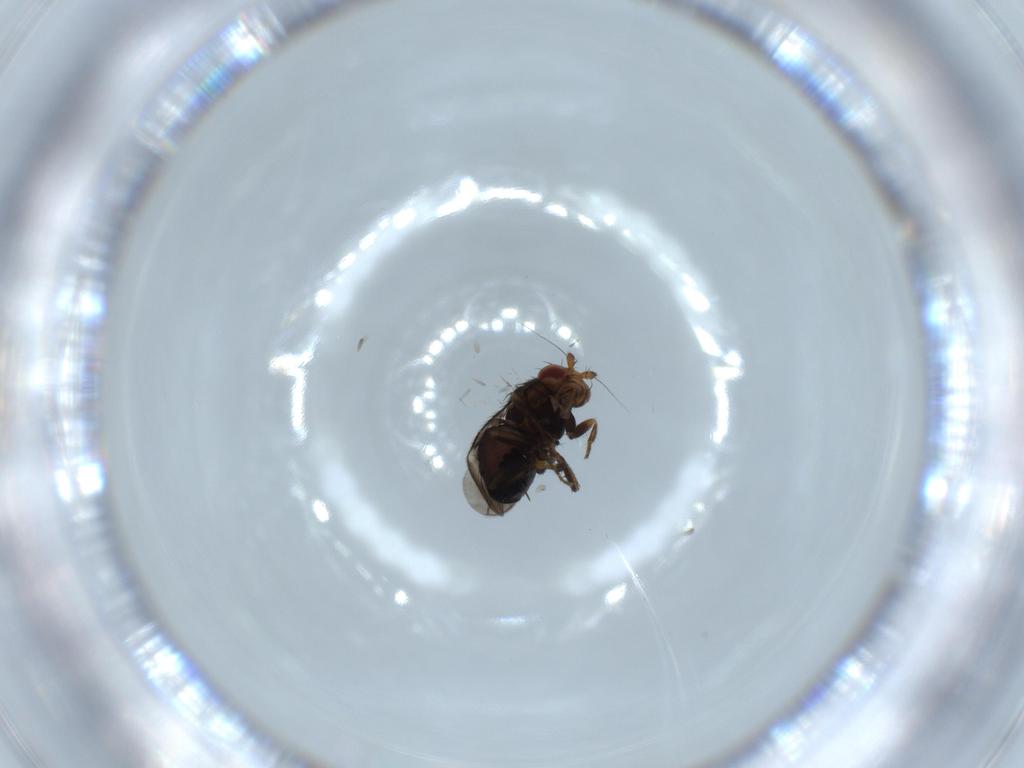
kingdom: Animalia
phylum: Arthropoda
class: Insecta
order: Diptera
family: Sphaeroceridae
